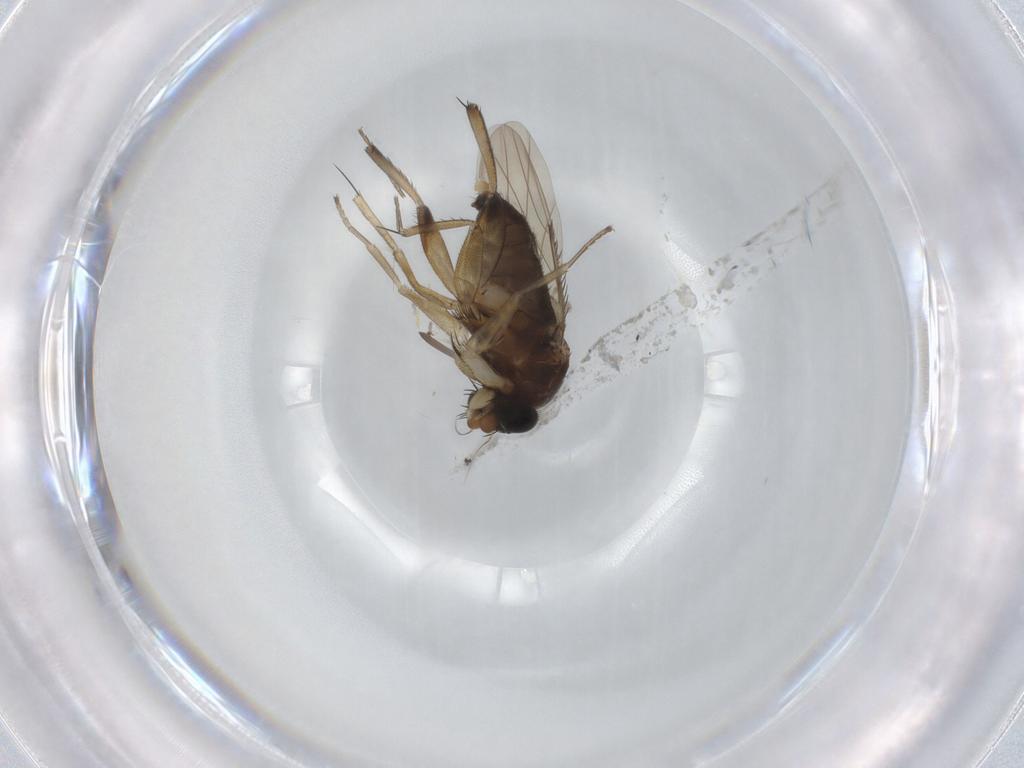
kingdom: Animalia
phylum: Arthropoda
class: Insecta
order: Diptera
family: Phoridae
